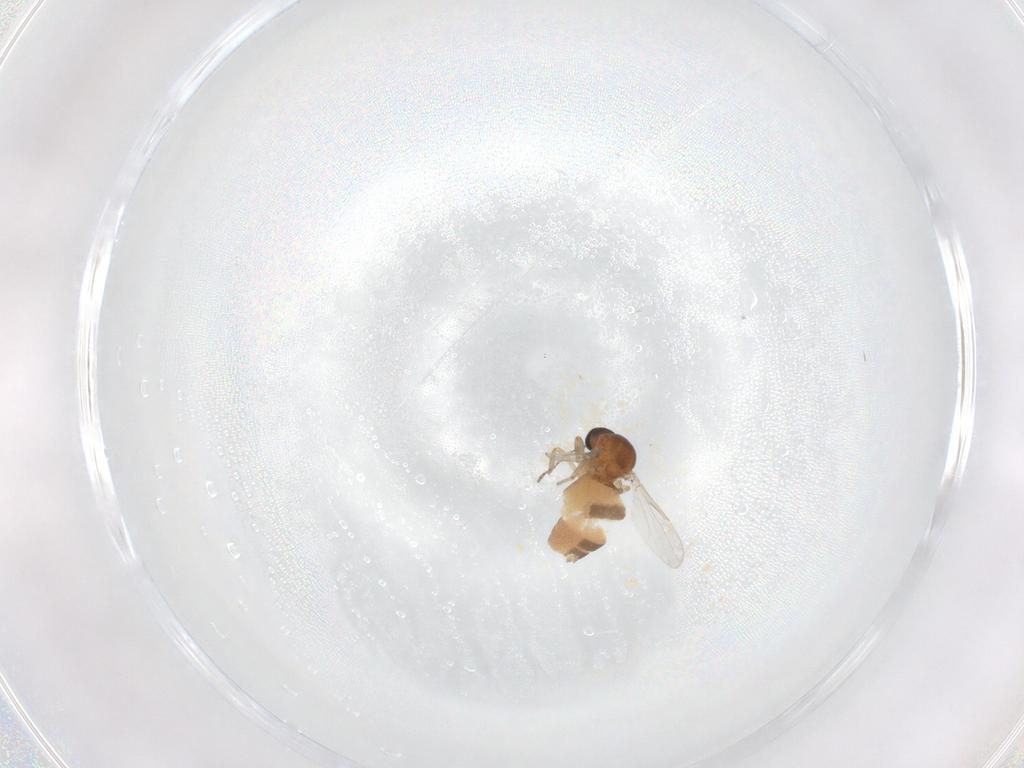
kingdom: Animalia
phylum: Arthropoda
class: Insecta
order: Diptera
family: Ceratopogonidae
